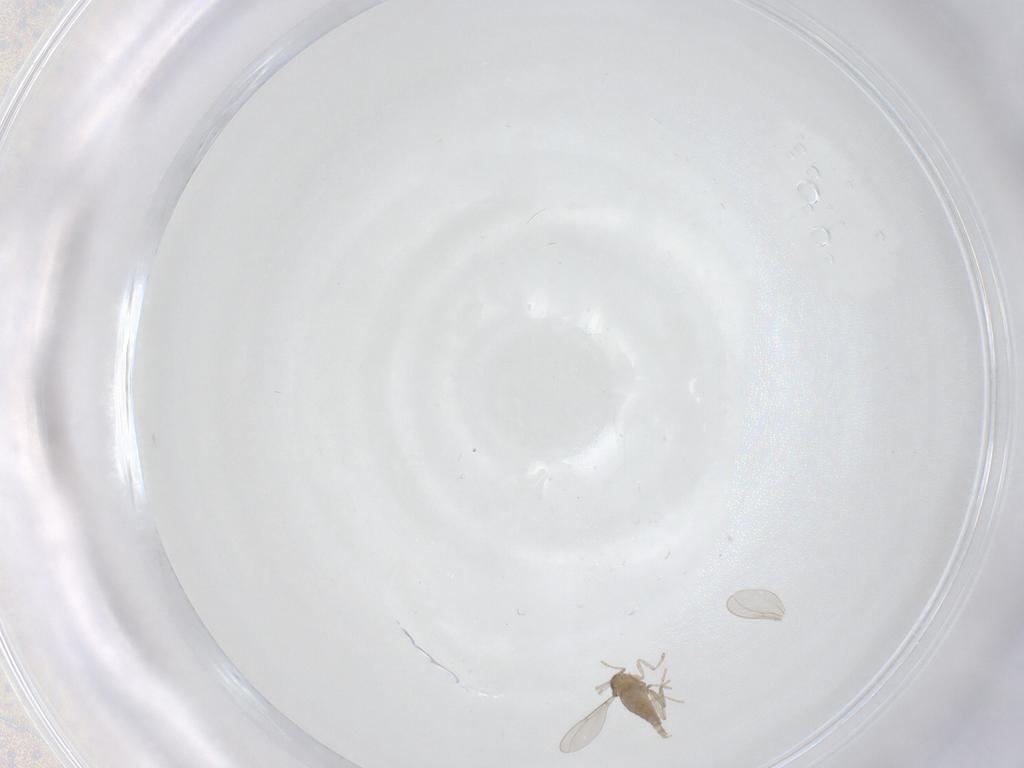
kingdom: Animalia
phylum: Arthropoda
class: Insecta
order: Diptera
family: Cecidomyiidae
